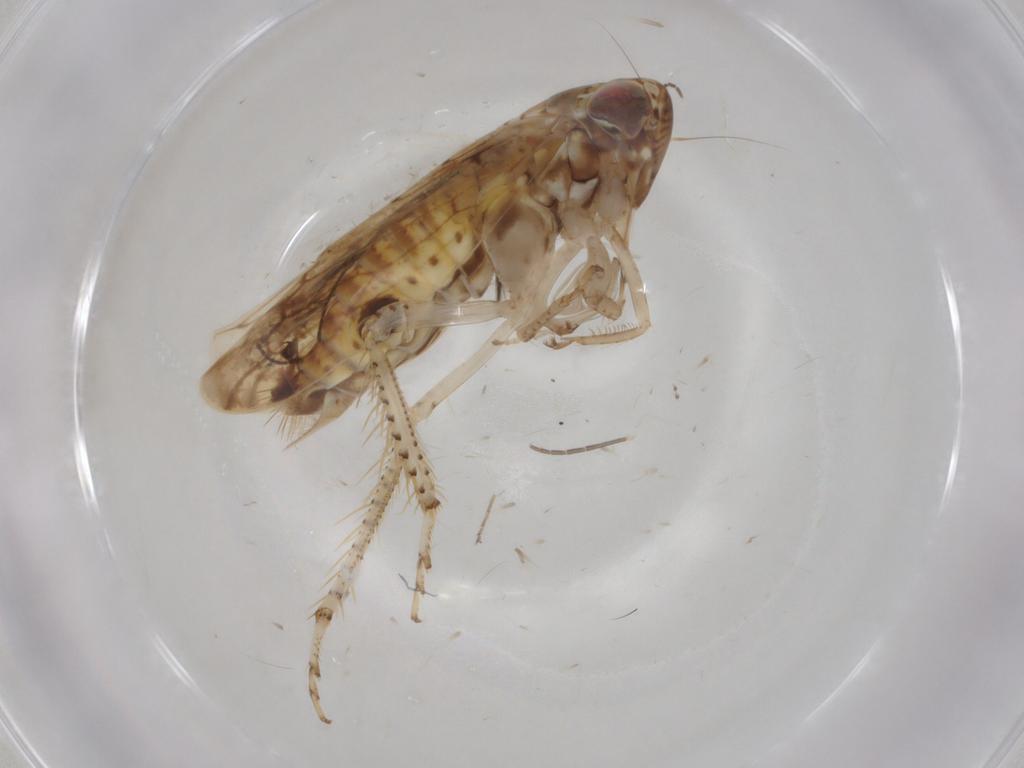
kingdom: Animalia
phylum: Arthropoda
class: Insecta
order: Hemiptera
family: Cicadellidae
